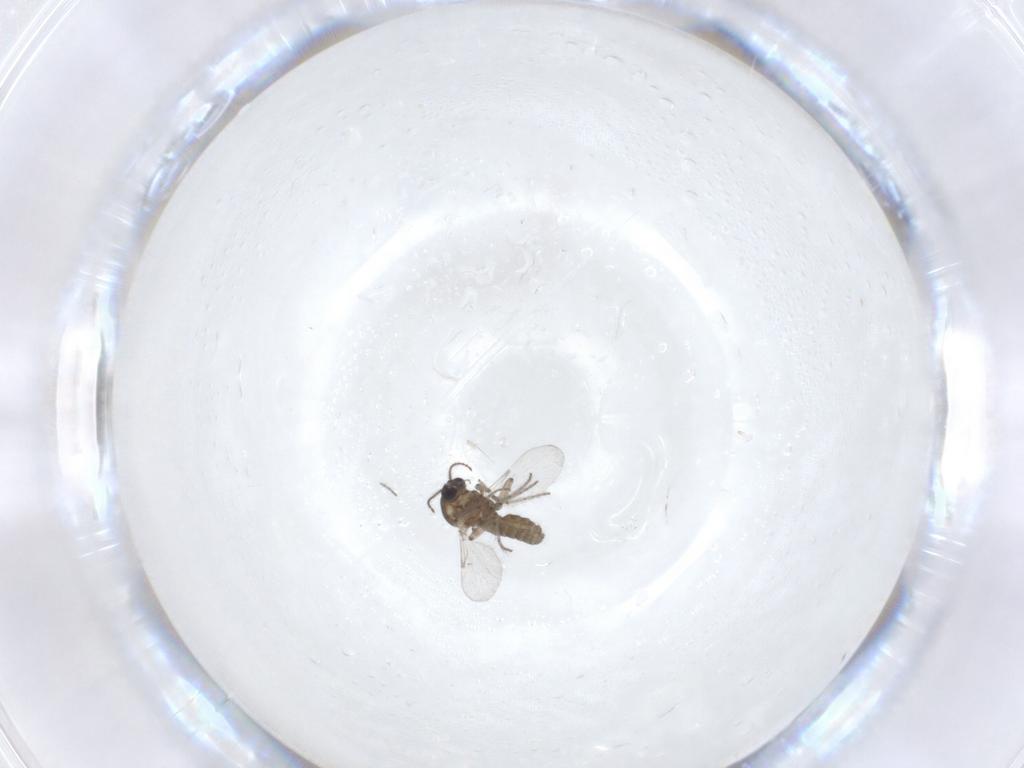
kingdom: Animalia
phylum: Arthropoda
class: Insecta
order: Diptera
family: Ceratopogonidae
